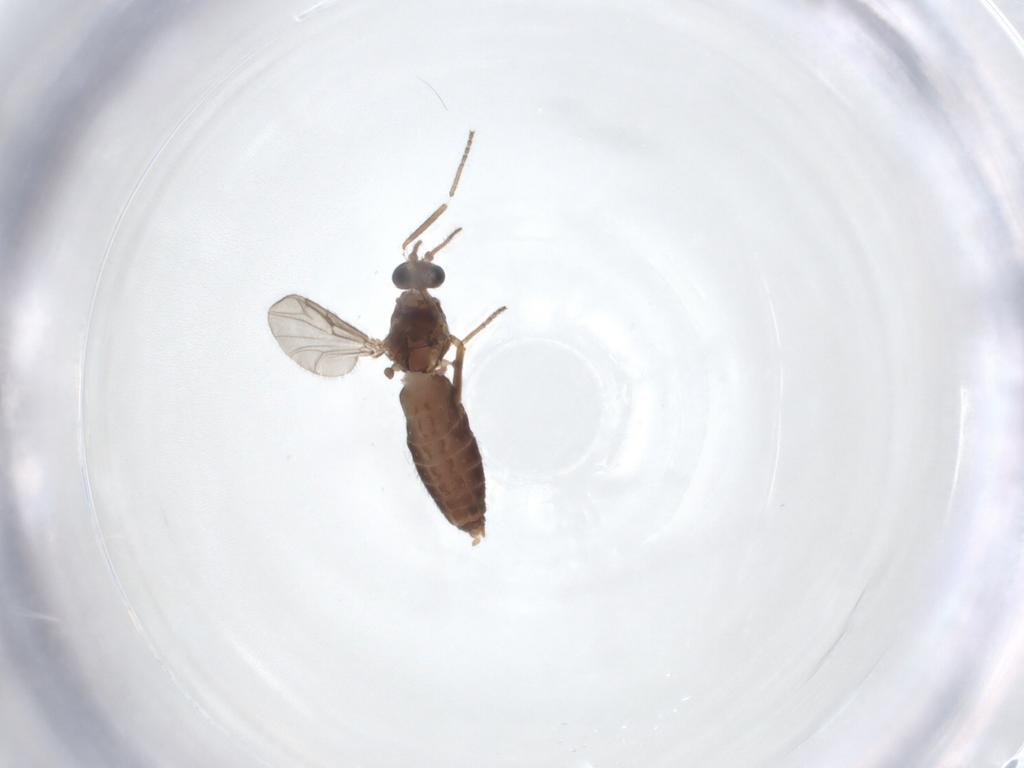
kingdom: Animalia
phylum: Arthropoda
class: Insecta
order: Diptera
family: Ceratopogonidae
